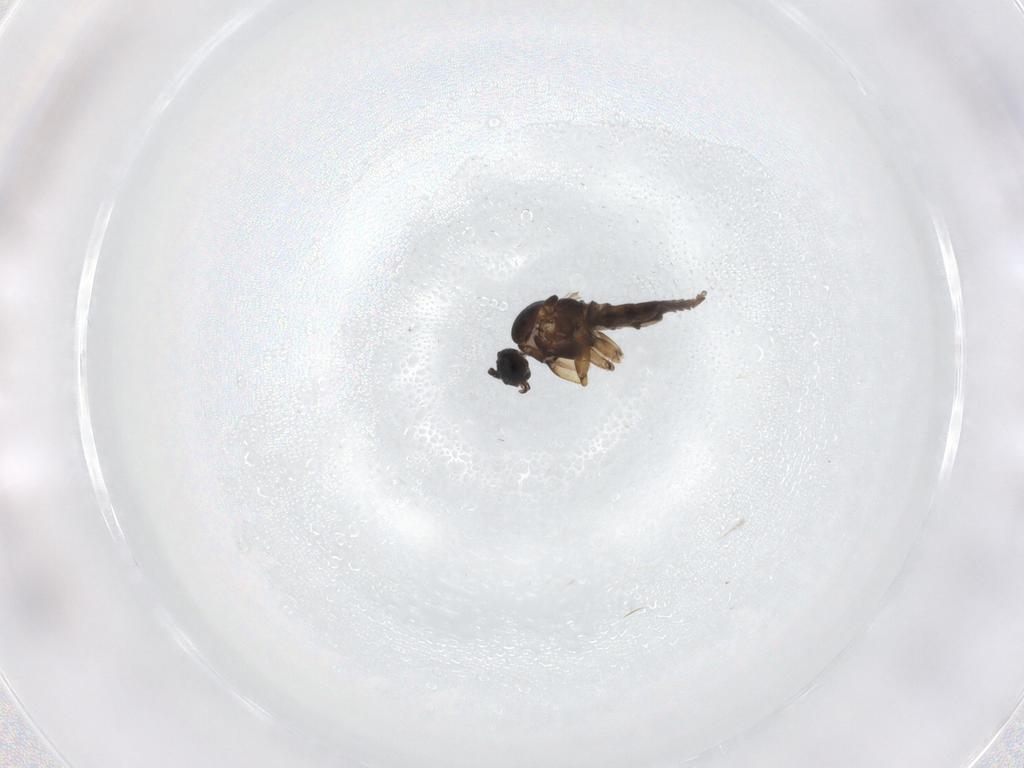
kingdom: Animalia
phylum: Arthropoda
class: Insecta
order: Diptera
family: Sciaridae
